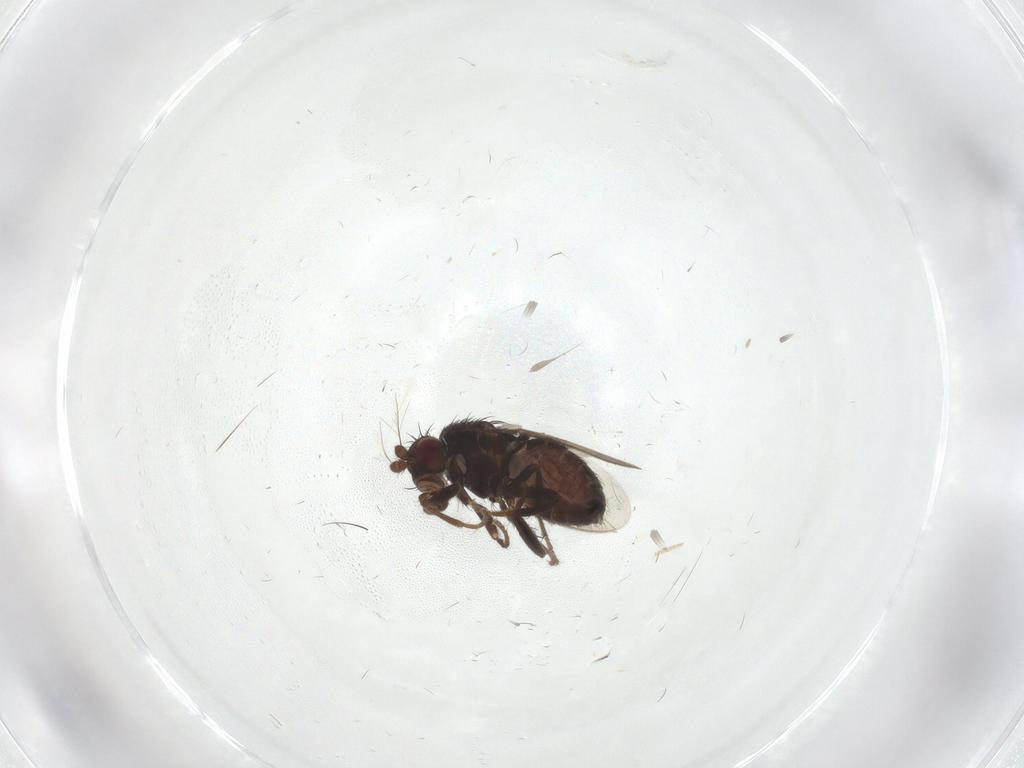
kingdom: Animalia
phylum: Arthropoda
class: Insecta
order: Diptera
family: Sphaeroceridae
